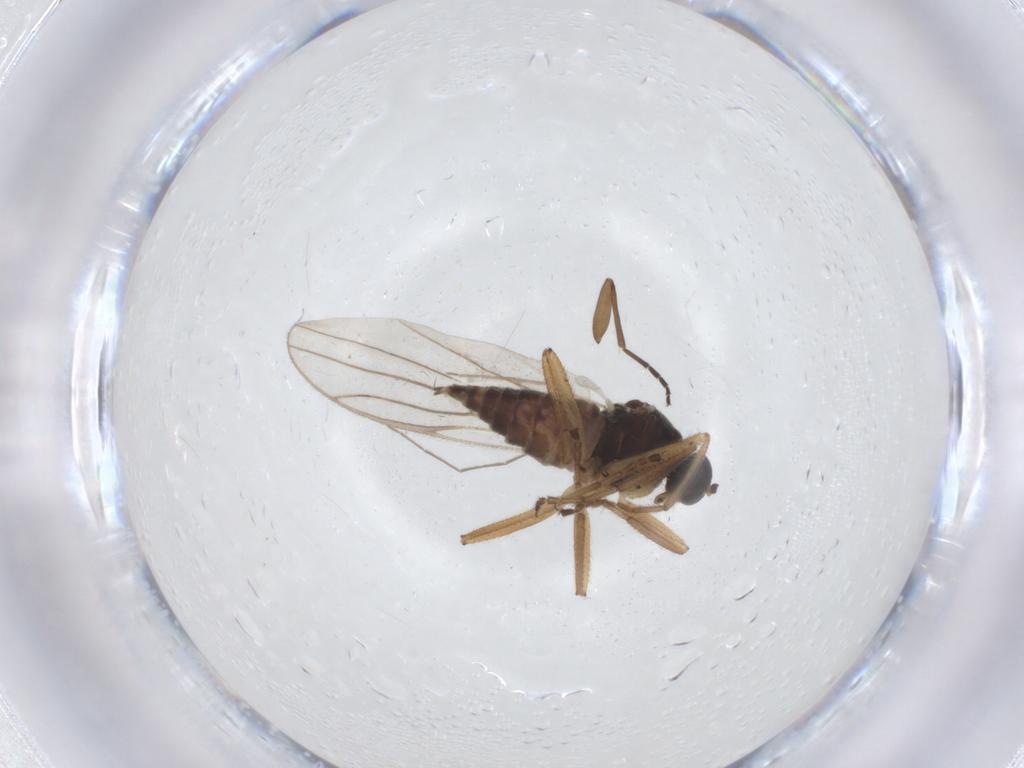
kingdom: Animalia
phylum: Arthropoda
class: Insecta
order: Diptera
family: Hybotidae
